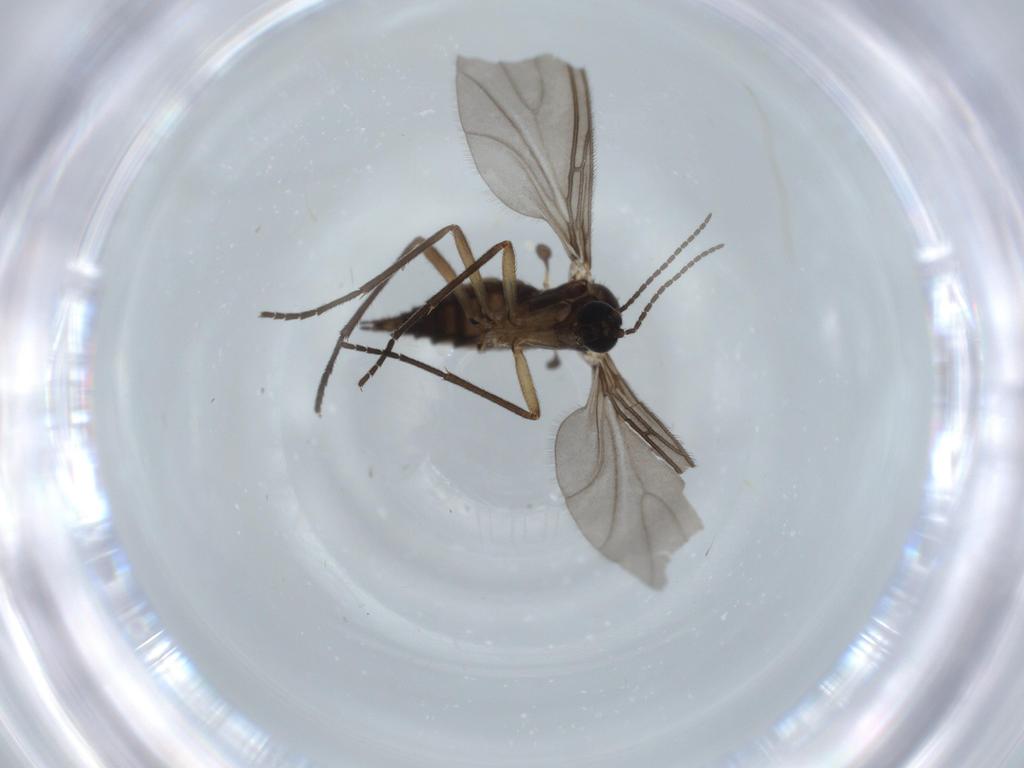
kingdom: Animalia
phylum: Arthropoda
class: Insecta
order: Diptera
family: Sciaridae
